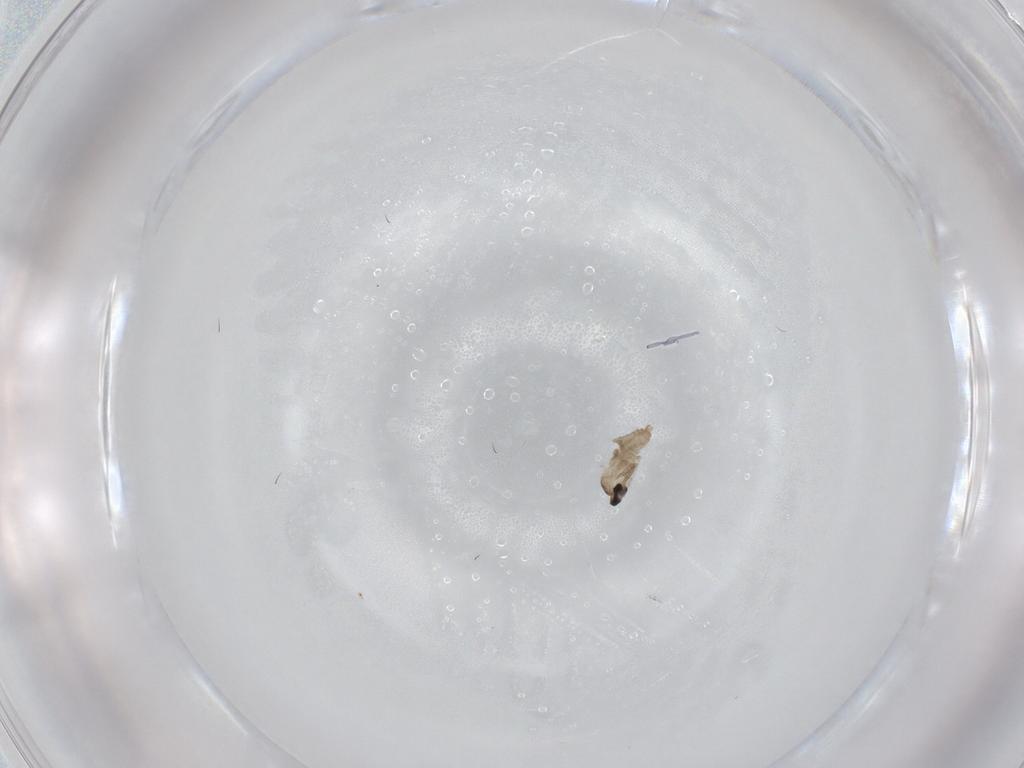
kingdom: Animalia
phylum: Arthropoda
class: Insecta
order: Diptera
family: Cecidomyiidae
